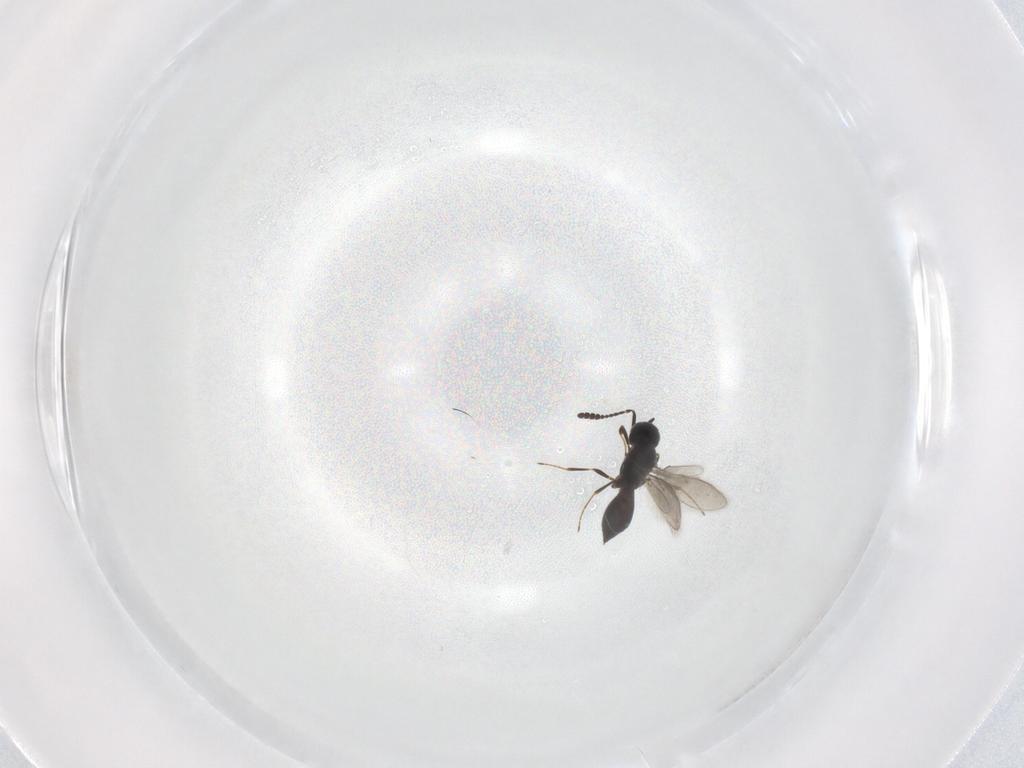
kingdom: Animalia
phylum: Arthropoda
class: Insecta
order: Hymenoptera
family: Scelionidae
